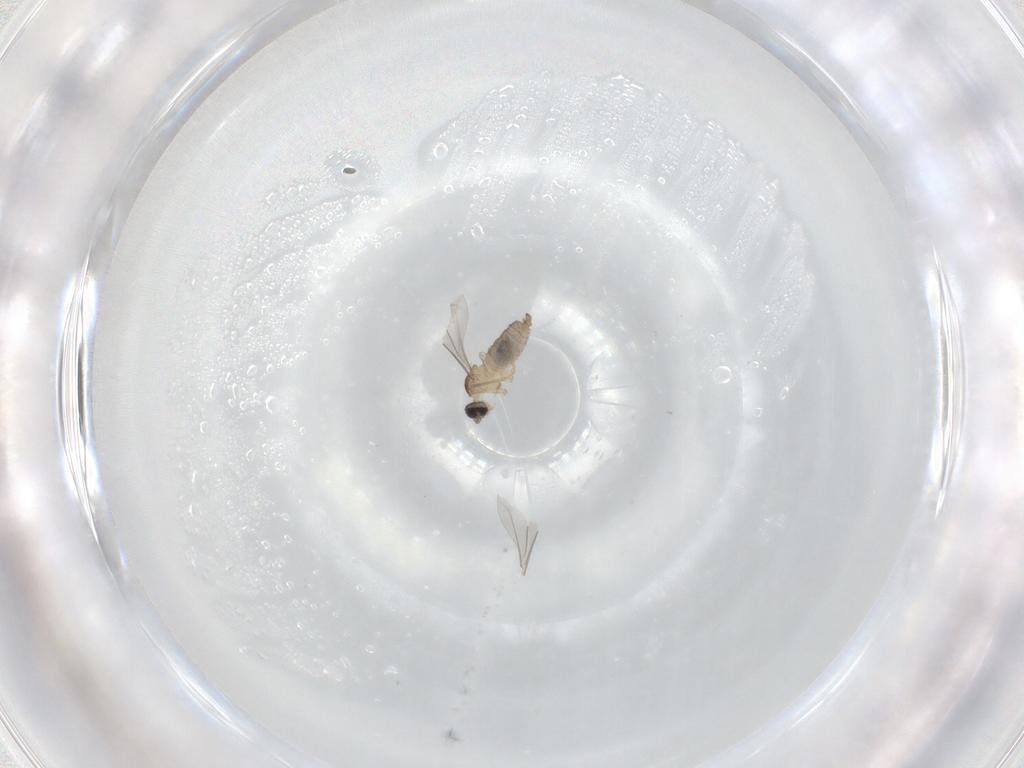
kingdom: Animalia
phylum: Arthropoda
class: Insecta
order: Diptera
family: Cecidomyiidae
